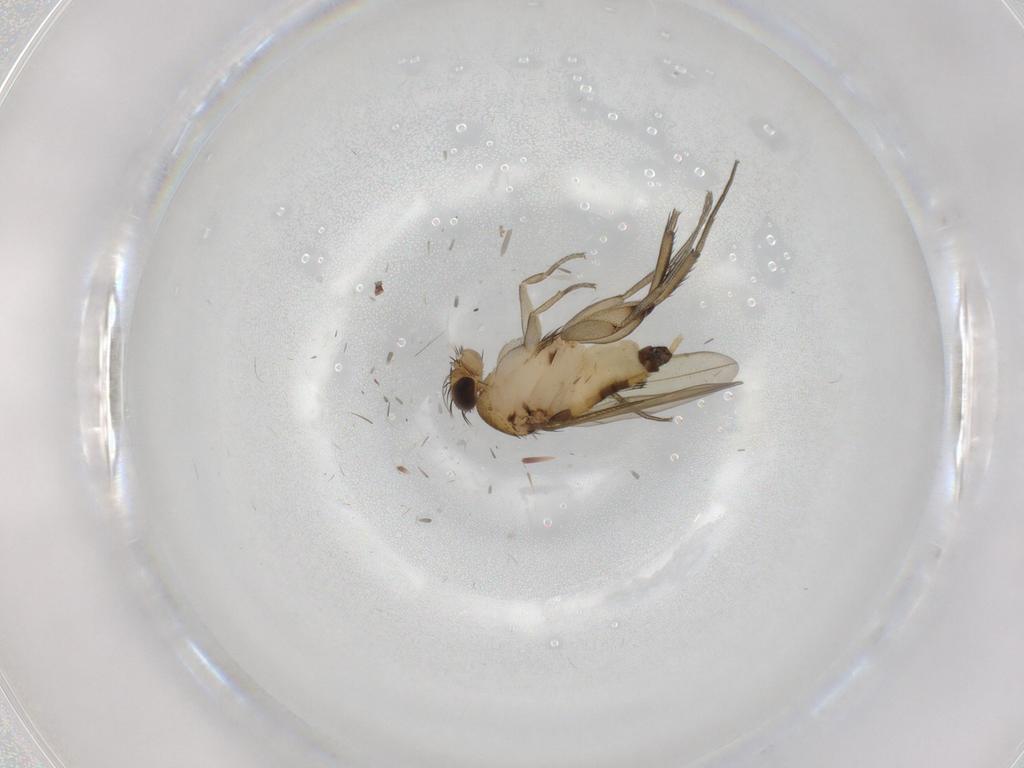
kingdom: Animalia
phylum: Arthropoda
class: Insecta
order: Diptera
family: Phoridae
